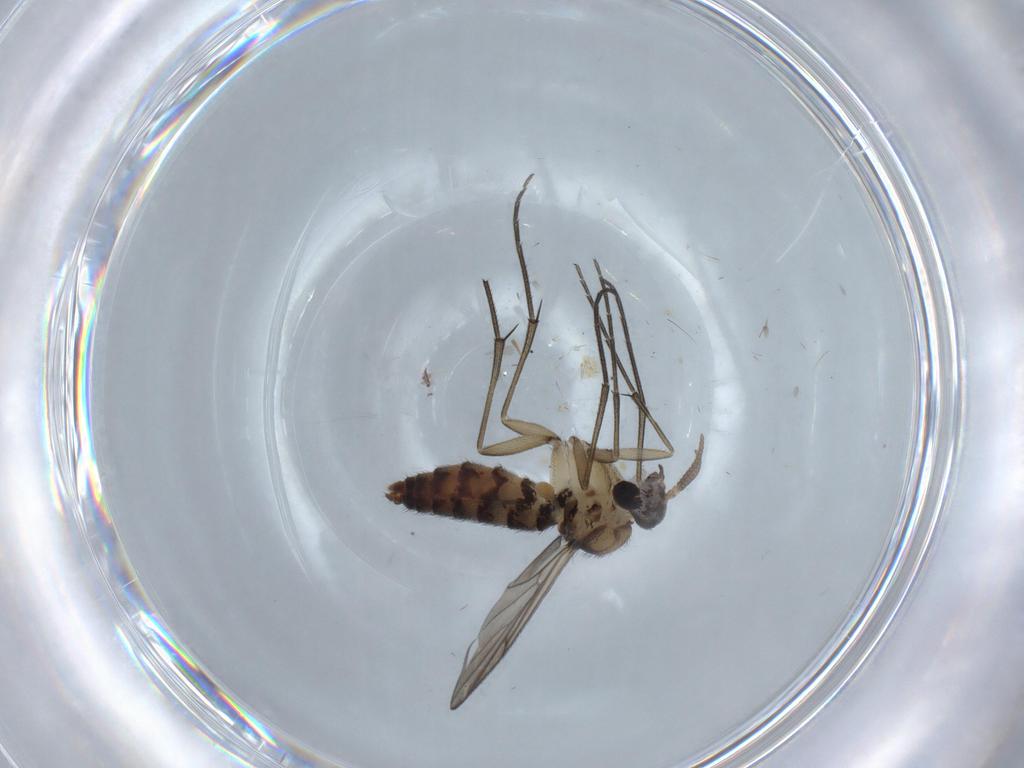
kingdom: Animalia
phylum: Arthropoda
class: Insecta
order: Diptera
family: Keroplatidae
